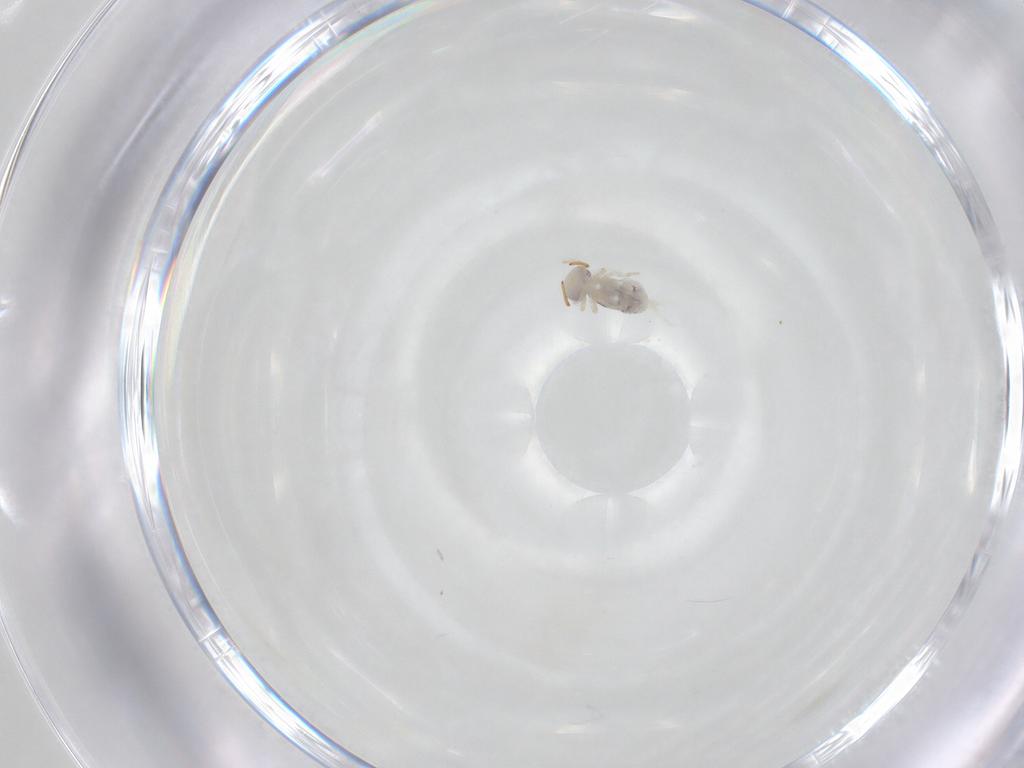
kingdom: Animalia
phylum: Arthropoda
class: Collembola
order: Symphypleona
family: Bourletiellidae
